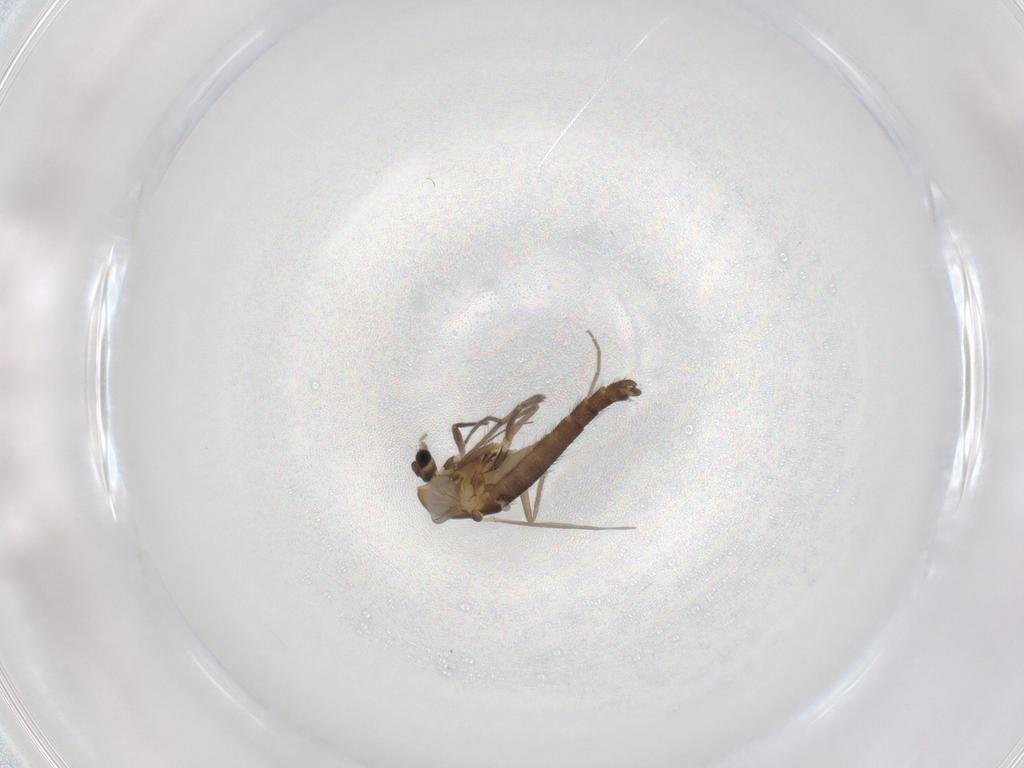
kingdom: Animalia
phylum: Arthropoda
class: Insecta
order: Diptera
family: Chironomidae
